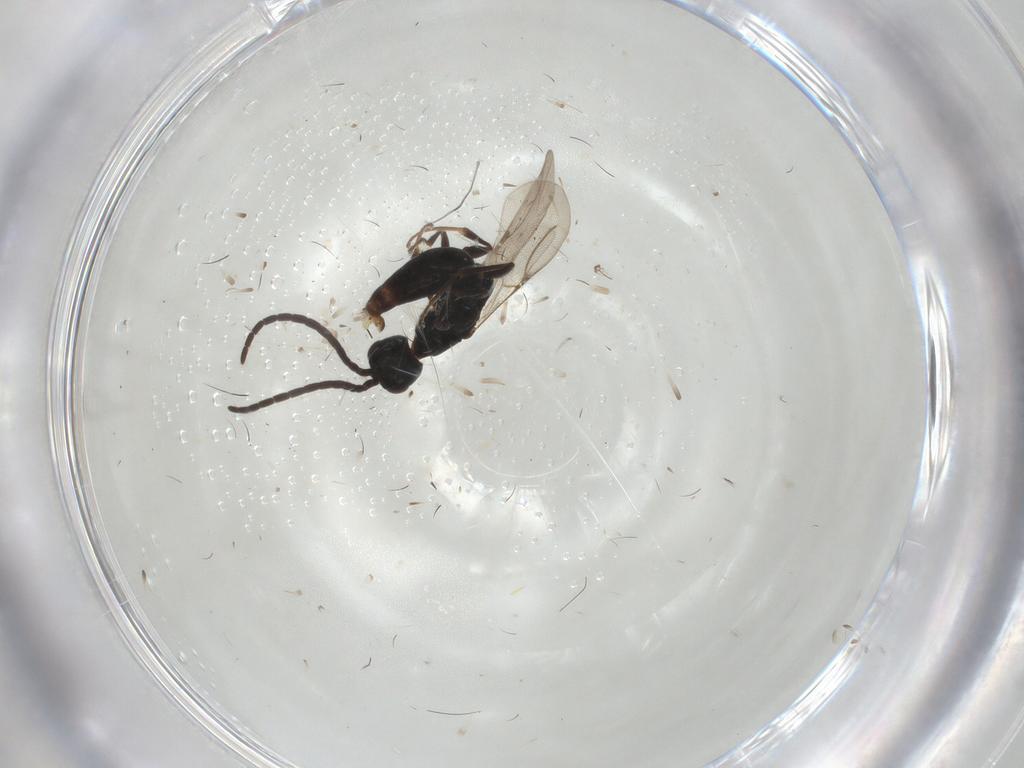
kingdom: Animalia
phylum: Arthropoda
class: Insecta
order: Hymenoptera
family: Bethylidae
